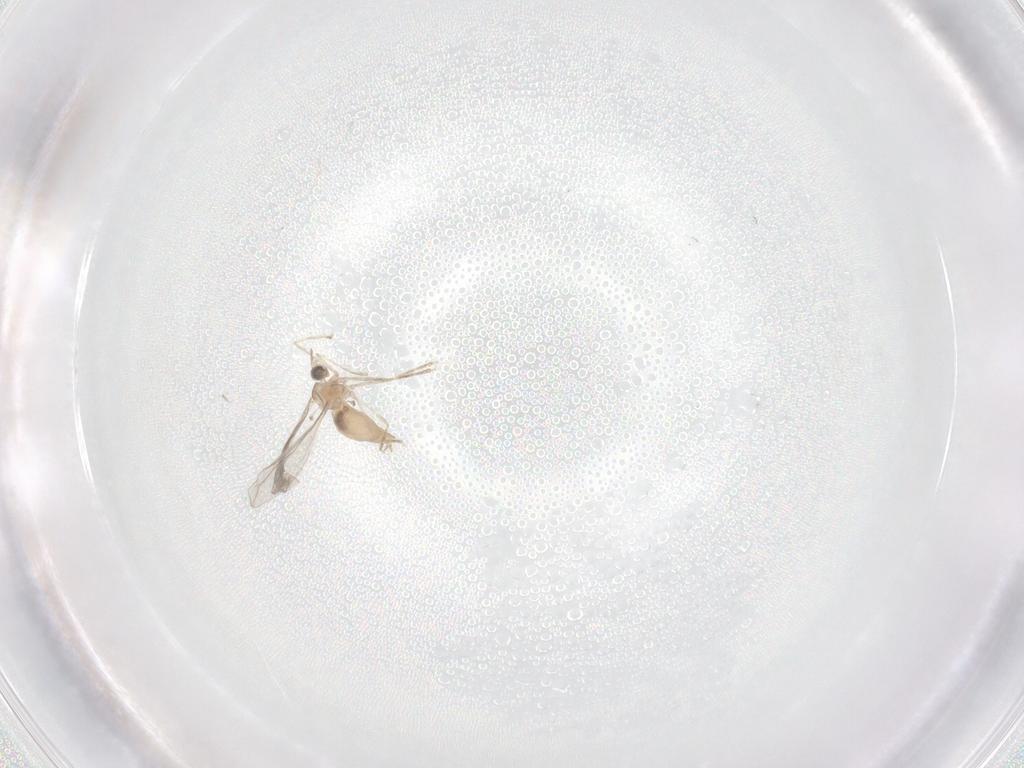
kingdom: Animalia
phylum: Arthropoda
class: Insecta
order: Diptera
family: Cecidomyiidae
